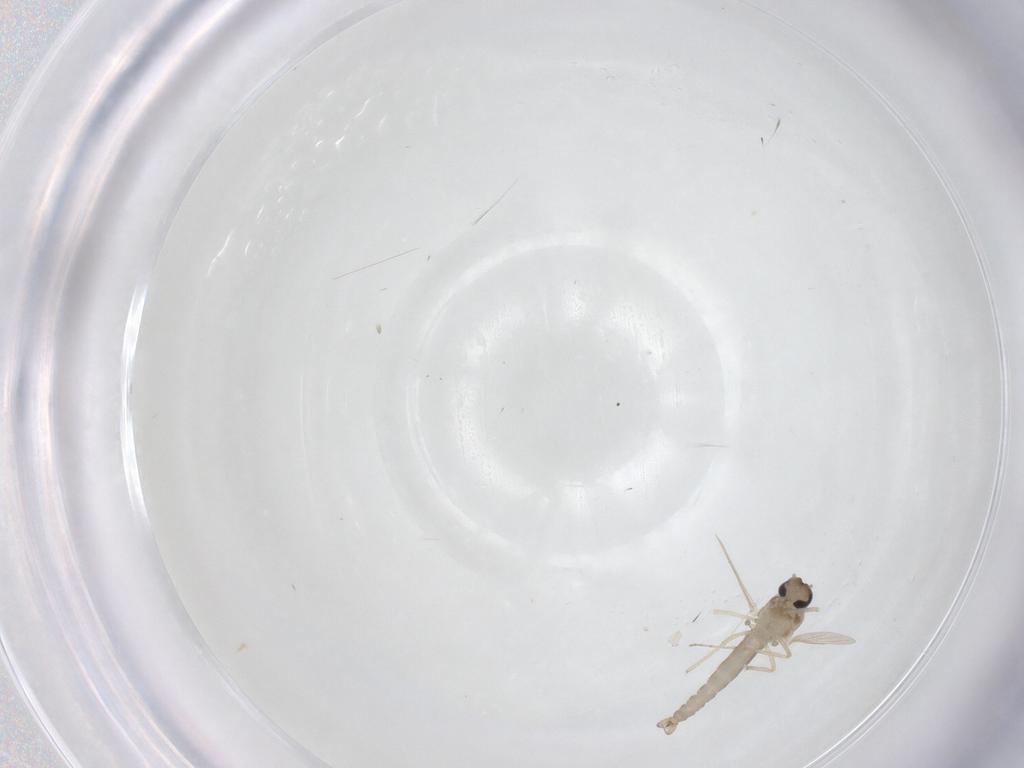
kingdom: Animalia
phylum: Arthropoda
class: Insecta
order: Diptera
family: Ceratopogonidae
